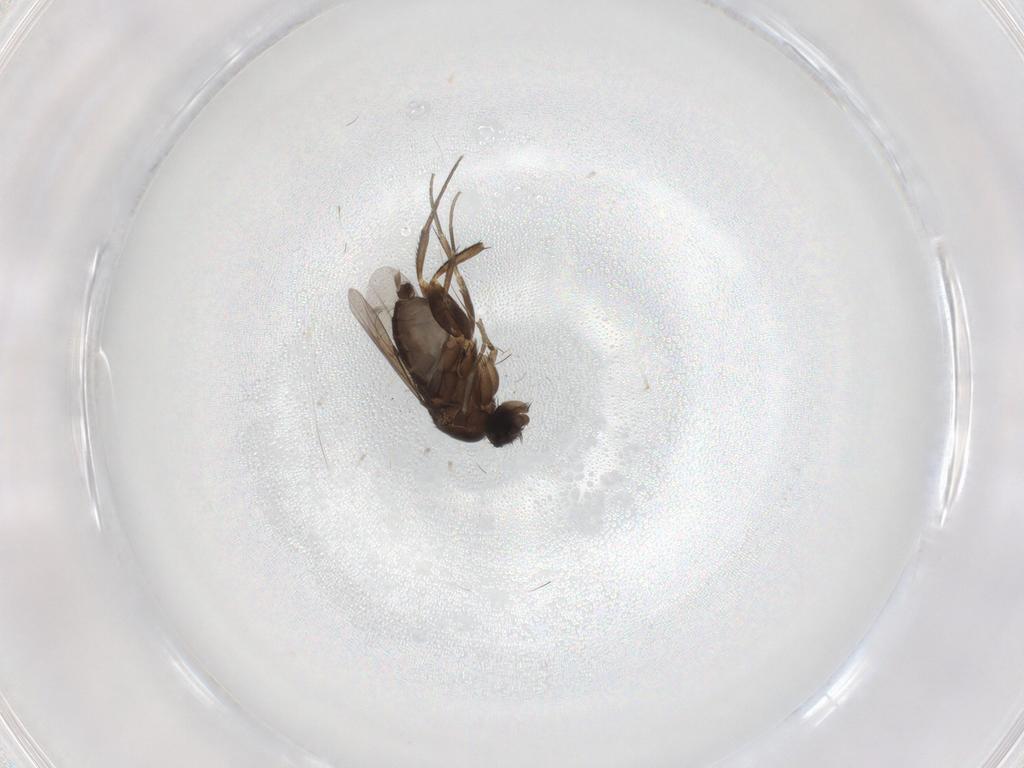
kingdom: Animalia
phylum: Arthropoda
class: Insecta
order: Diptera
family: Phoridae
